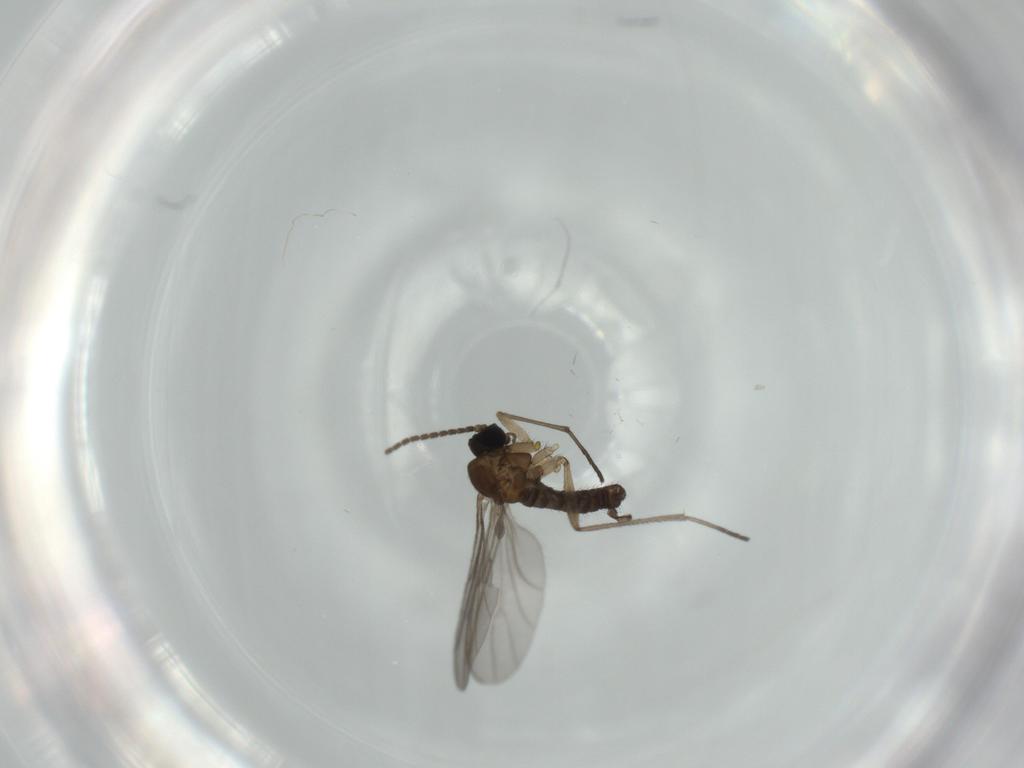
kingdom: Animalia
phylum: Arthropoda
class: Insecta
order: Diptera
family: Sciaridae
